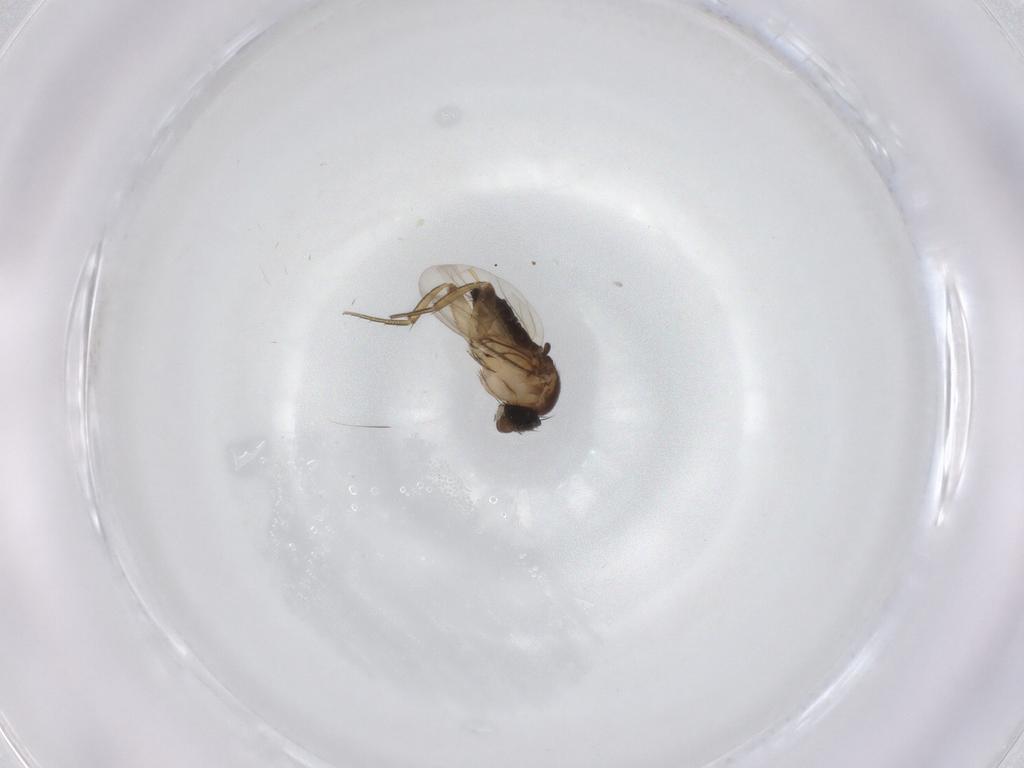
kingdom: Animalia
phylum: Arthropoda
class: Insecta
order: Diptera
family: Phoridae
